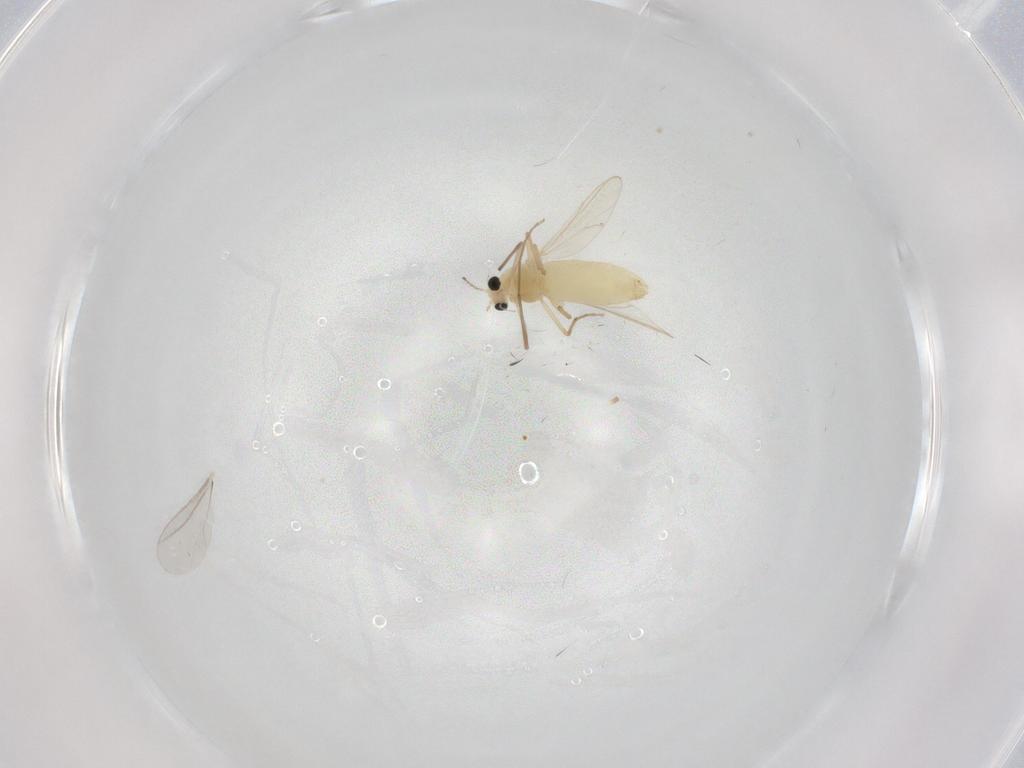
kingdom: Animalia
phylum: Arthropoda
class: Insecta
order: Diptera
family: Chironomidae
